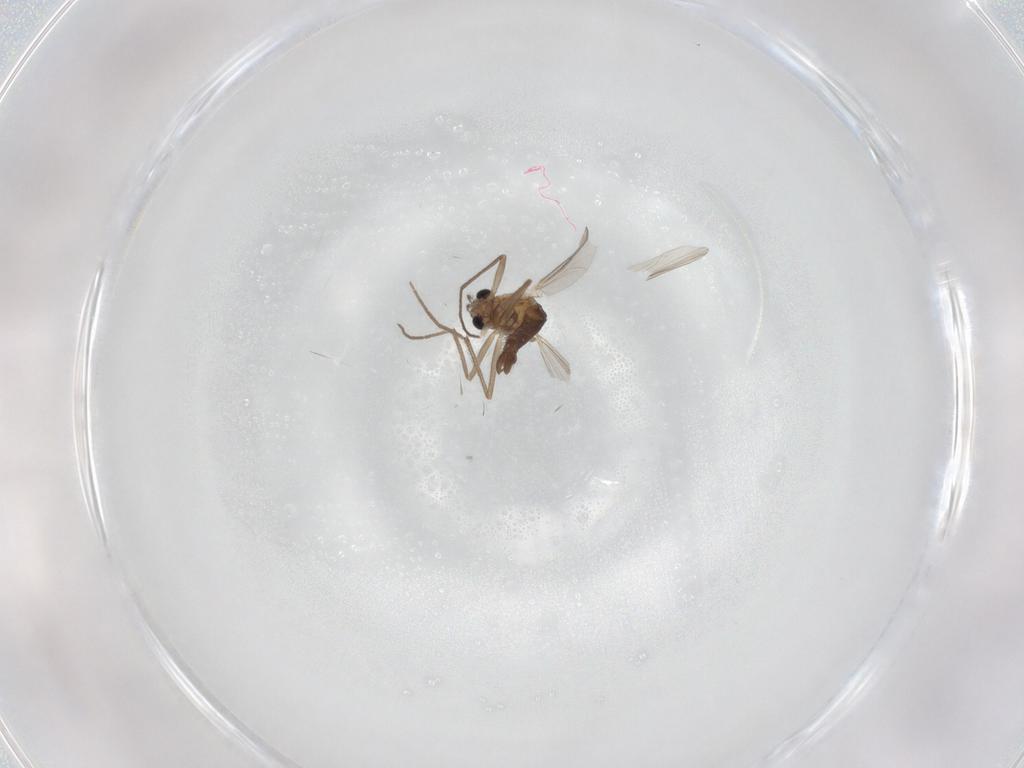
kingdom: Animalia
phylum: Arthropoda
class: Insecta
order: Diptera
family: Chironomidae
